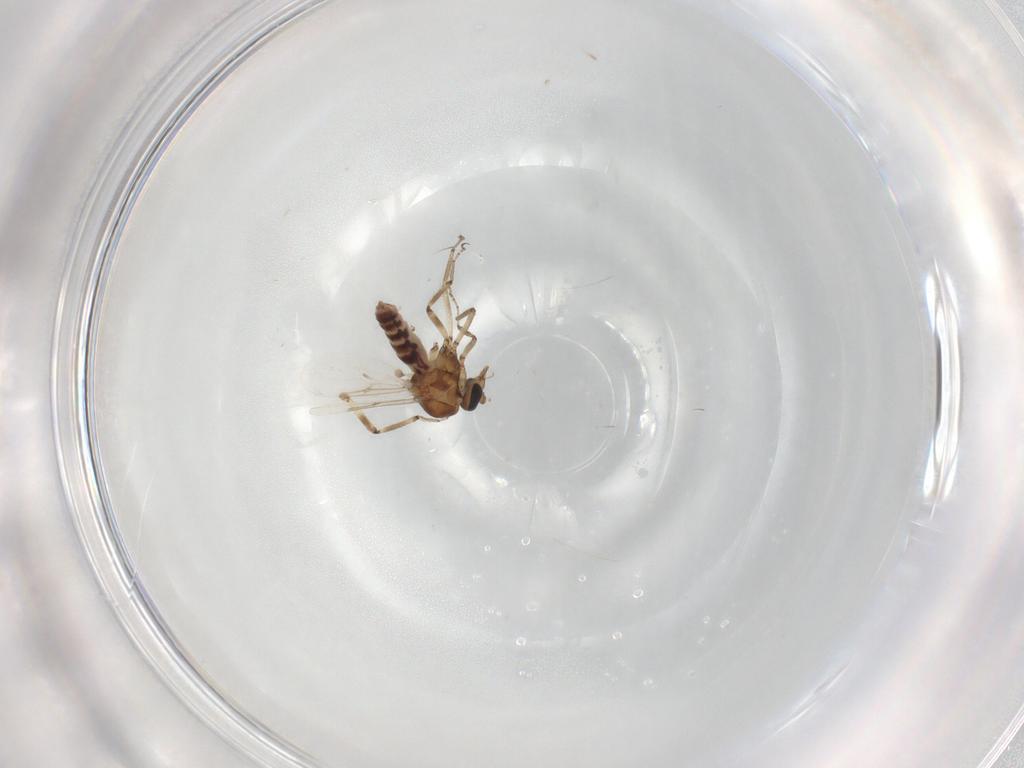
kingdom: Animalia
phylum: Arthropoda
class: Insecta
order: Diptera
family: Ceratopogonidae
